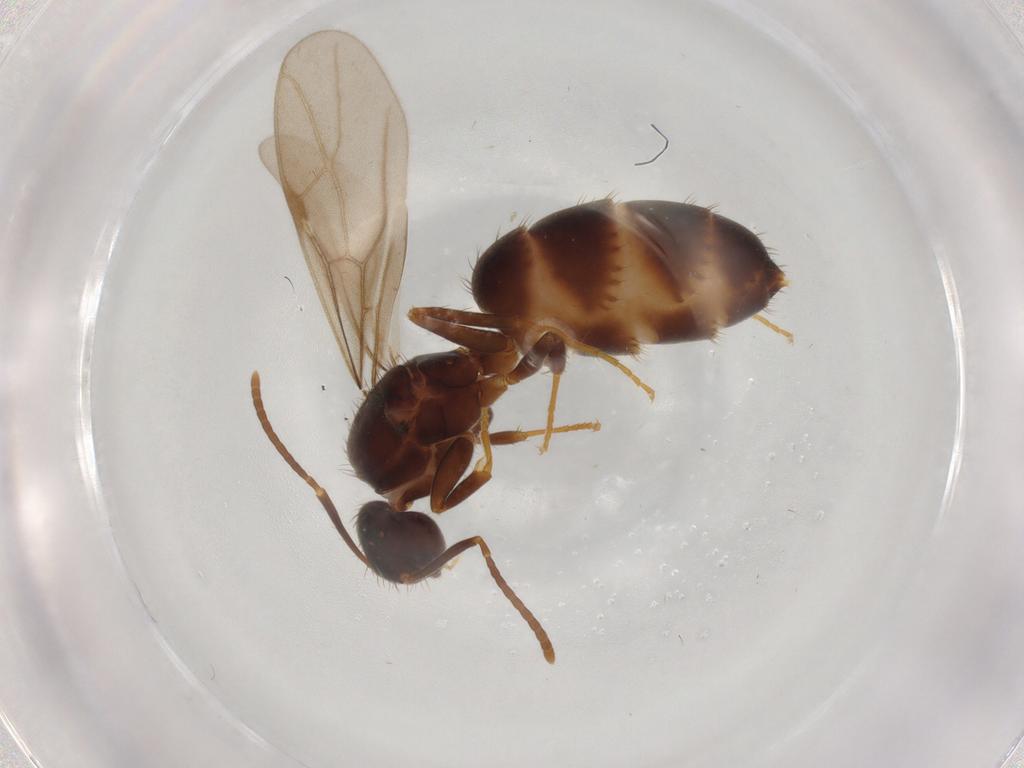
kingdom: Animalia
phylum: Arthropoda
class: Insecta
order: Hymenoptera
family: Formicidae
